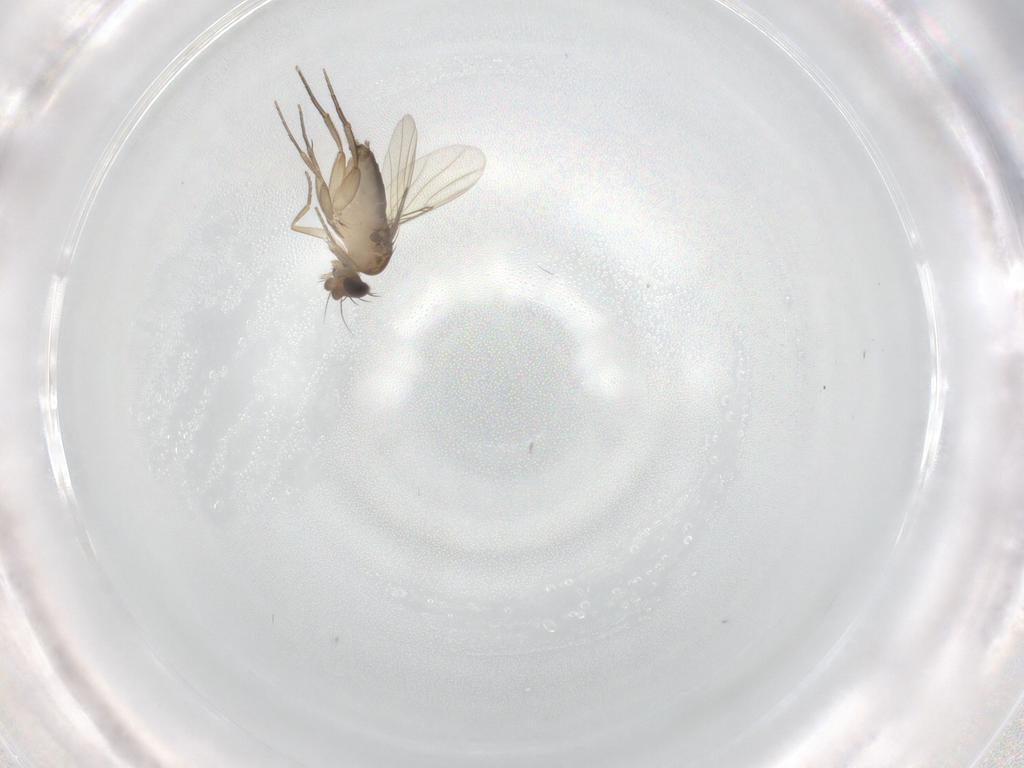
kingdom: Animalia
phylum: Arthropoda
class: Insecta
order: Diptera
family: Phoridae
